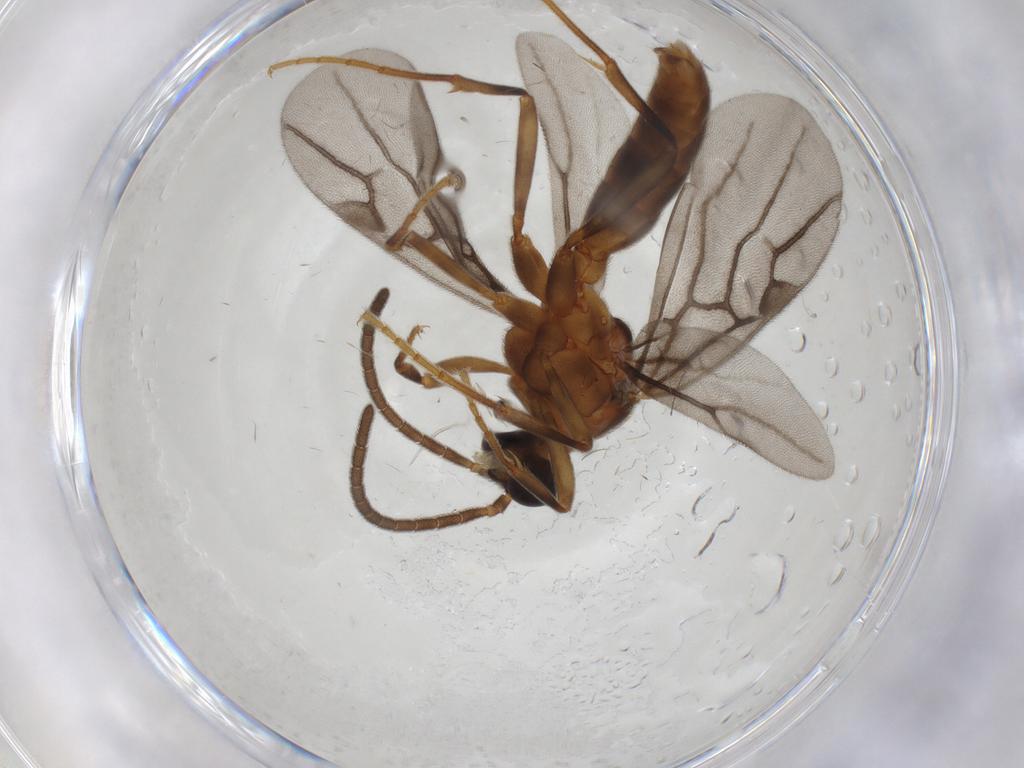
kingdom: Animalia
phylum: Arthropoda
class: Insecta
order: Hymenoptera
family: Formicidae
